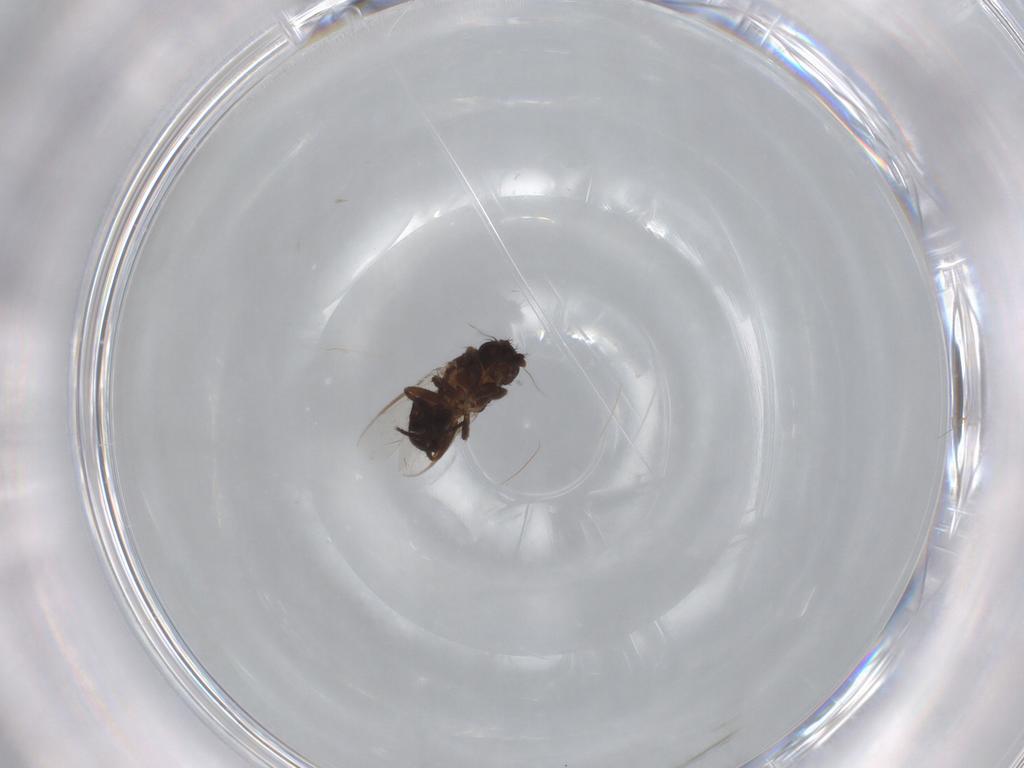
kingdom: Animalia
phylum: Arthropoda
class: Insecta
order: Diptera
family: Sphaeroceridae
